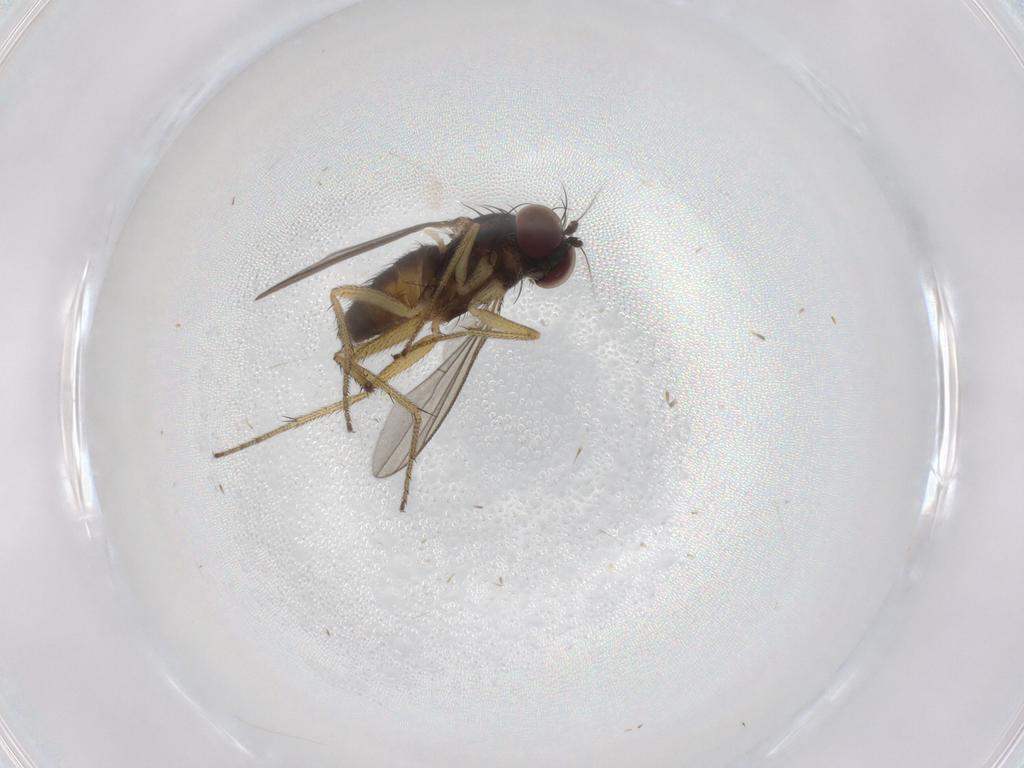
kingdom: Animalia
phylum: Arthropoda
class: Insecta
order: Diptera
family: Dolichopodidae
